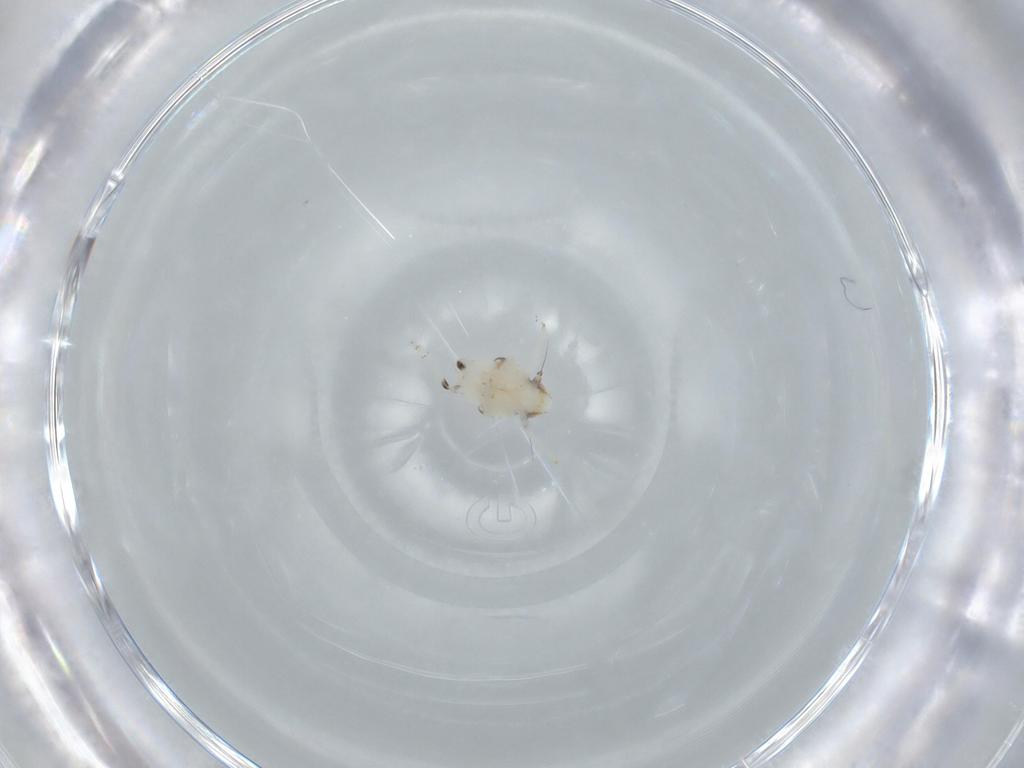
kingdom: Animalia
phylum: Arthropoda
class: Insecta
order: Hemiptera
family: Nogodinidae
